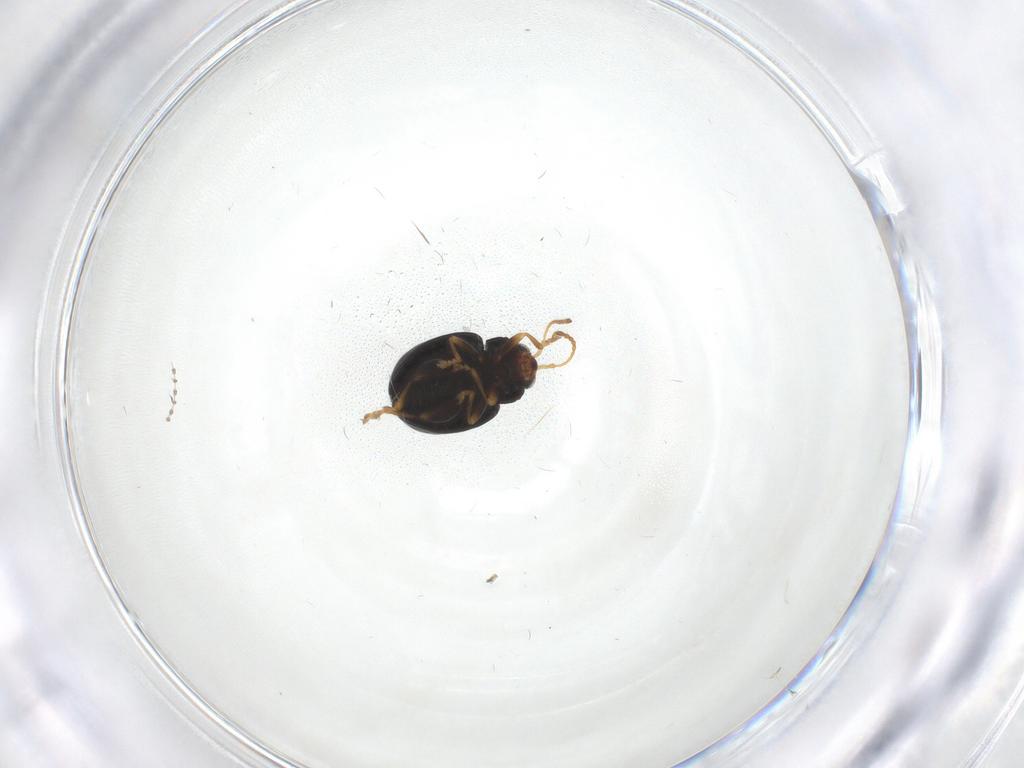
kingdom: Animalia
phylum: Arthropoda
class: Insecta
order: Coleoptera
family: Chrysomelidae
